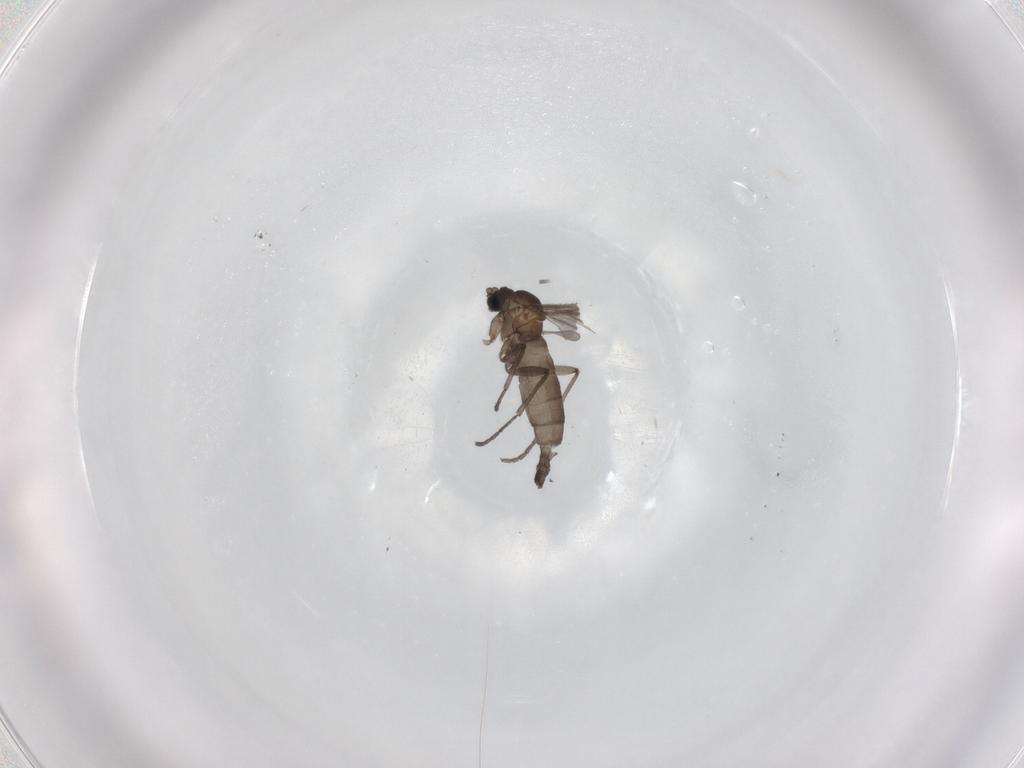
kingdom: Animalia
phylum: Arthropoda
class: Insecta
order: Diptera
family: Sciaridae
